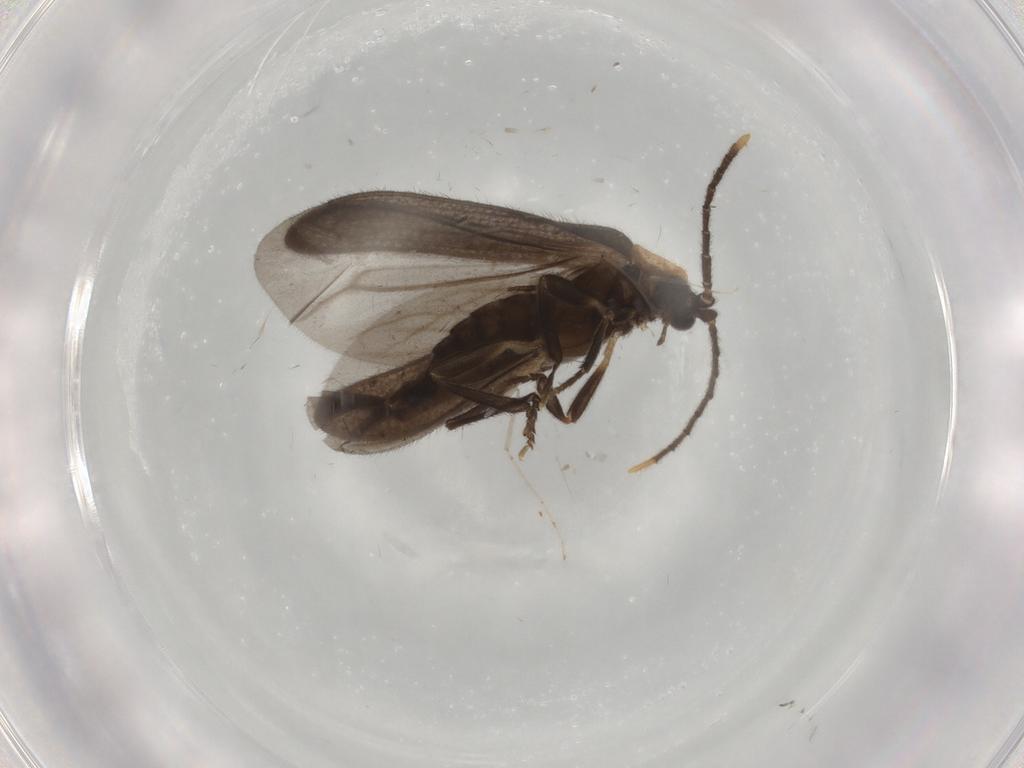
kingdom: Animalia
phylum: Arthropoda
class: Insecta
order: Coleoptera
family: Lycidae
